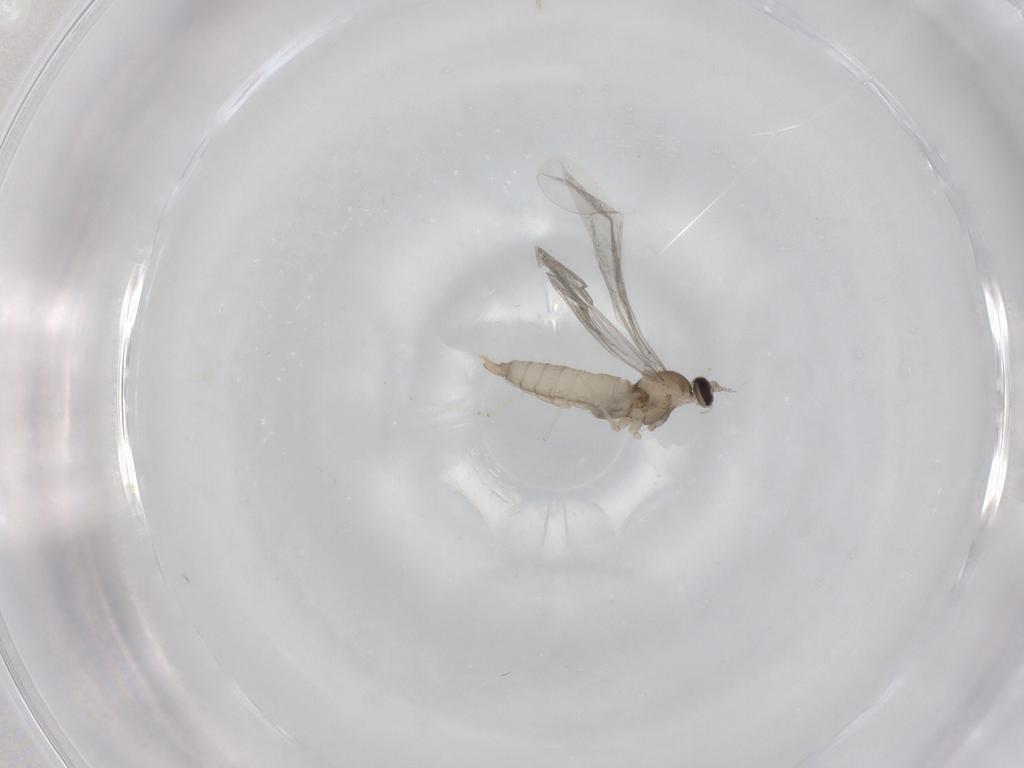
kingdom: Animalia
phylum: Arthropoda
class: Insecta
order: Diptera
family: Cecidomyiidae
